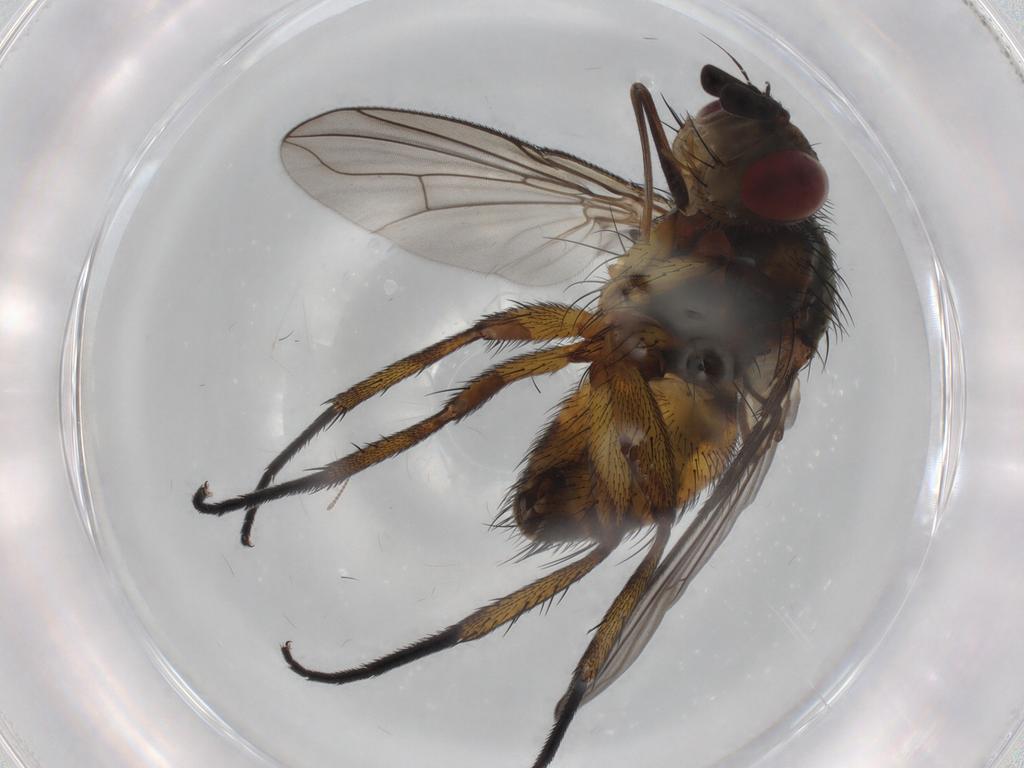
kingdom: Animalia
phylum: Arthropoda
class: Insecta
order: Diptera
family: Tachinidae
